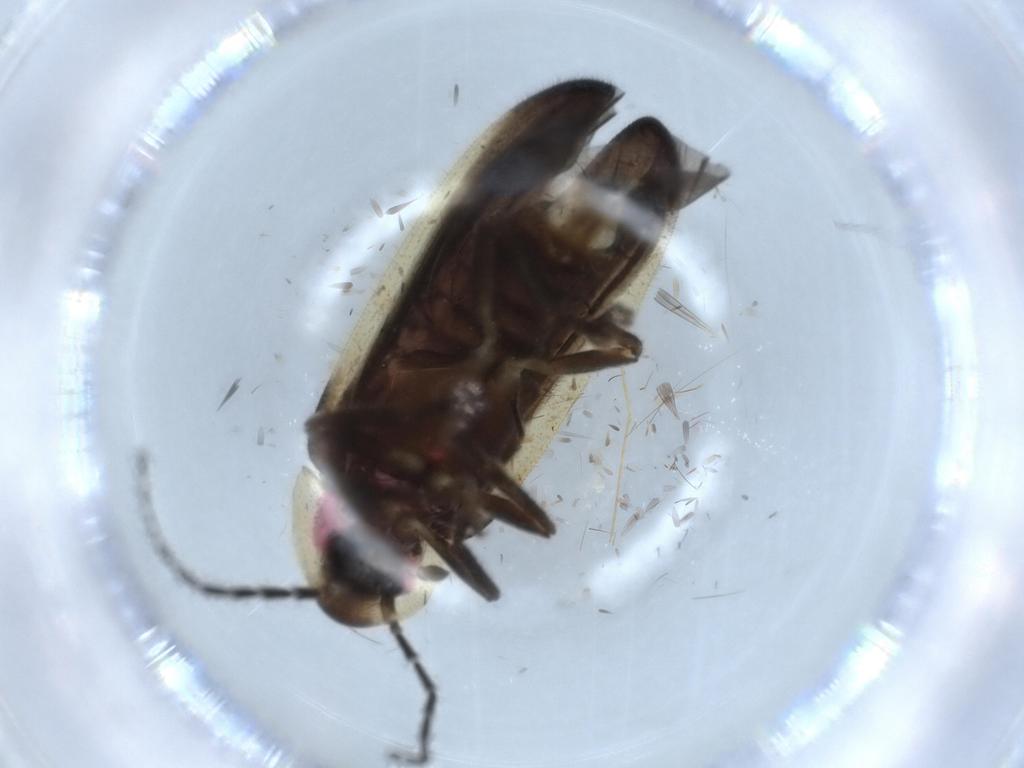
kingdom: Animalia
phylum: Arthropoda
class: Insecta
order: Coleoptera
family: Lampyridae
